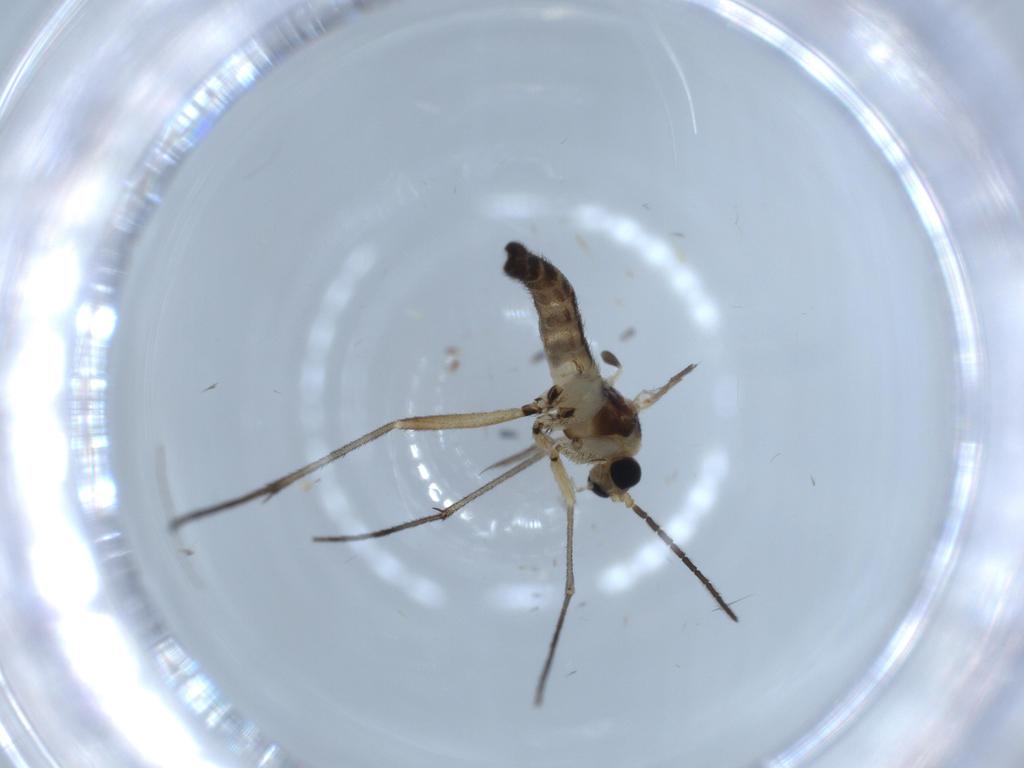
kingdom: Animalia
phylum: Arthropoda
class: Insecta
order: Diptera
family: Sciaridae
